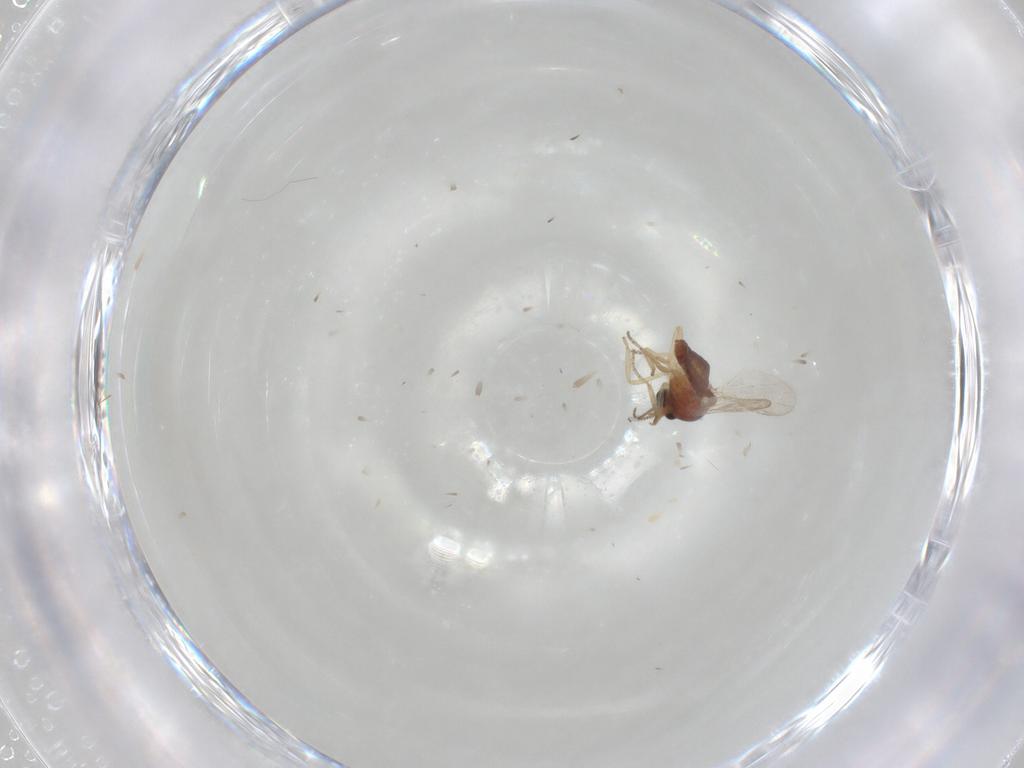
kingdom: Animalia
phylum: Arthropoda
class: Insecta
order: Diptera
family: Ceratopogonidae
